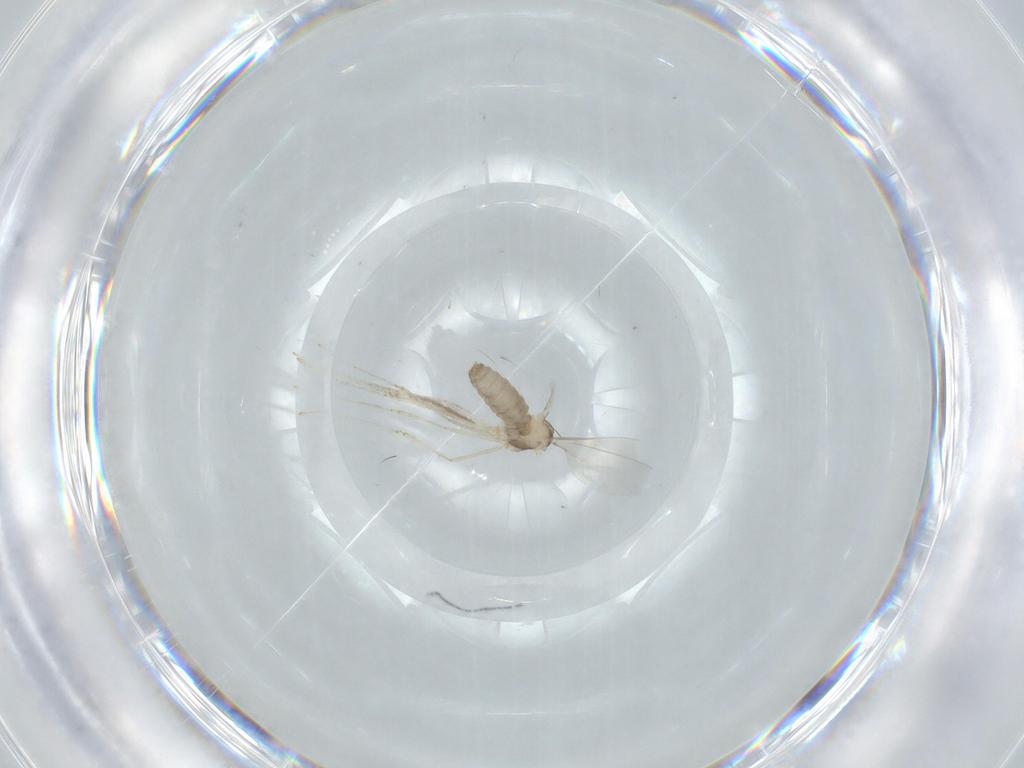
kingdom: Animalia
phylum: Arthropoda
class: Insecta
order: Diptera
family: Cecidomyiidae
